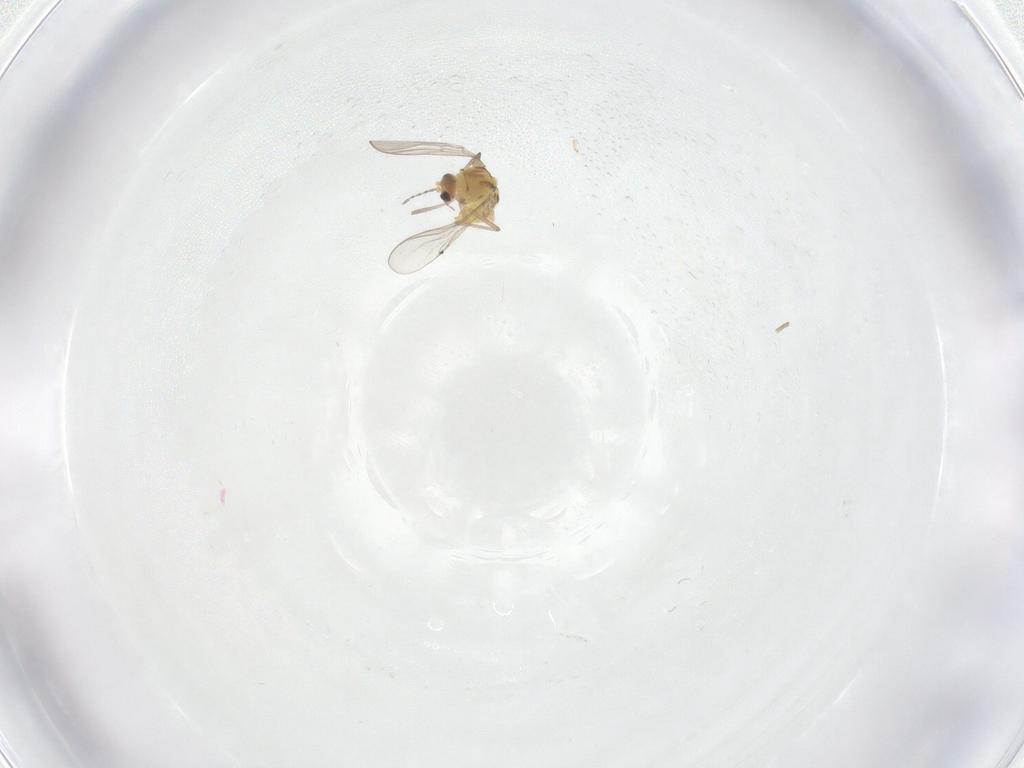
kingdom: Animalia
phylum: Arthropoda
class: Insecta
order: Diptera
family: Chironomidae
